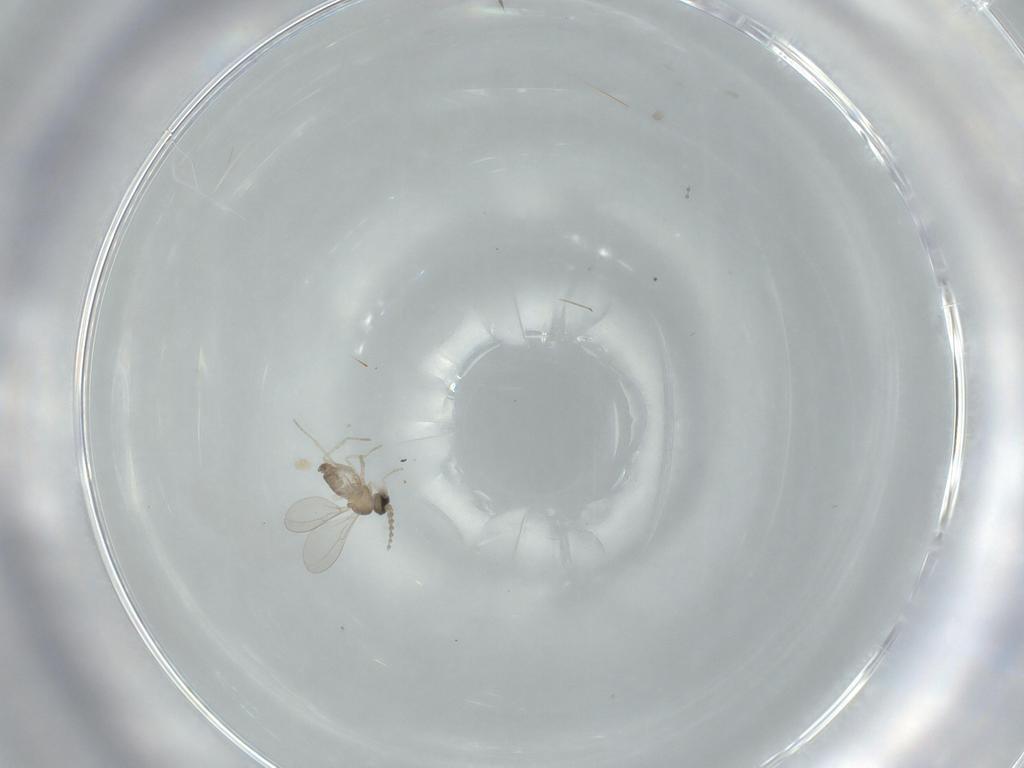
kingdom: Animalia
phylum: Arthropoda
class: Insecta
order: Diptera
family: Cecidomyiidae
